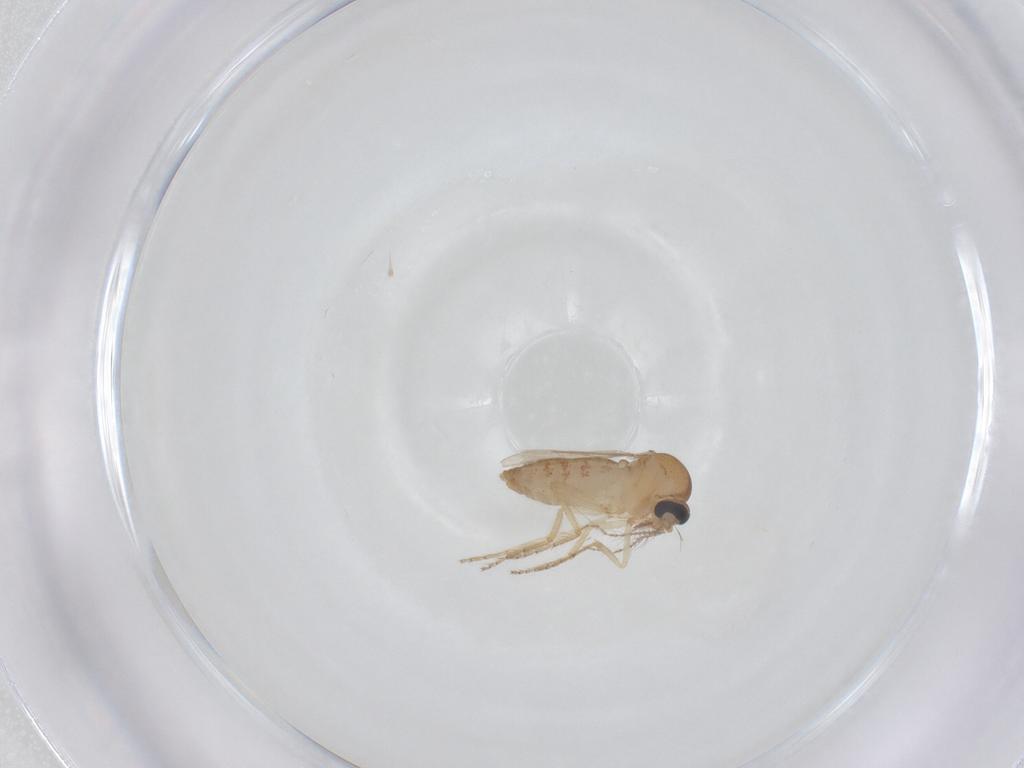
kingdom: Animalia
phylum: Arthropoda
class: Insecta
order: Diptera
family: Ceratopogonidae
